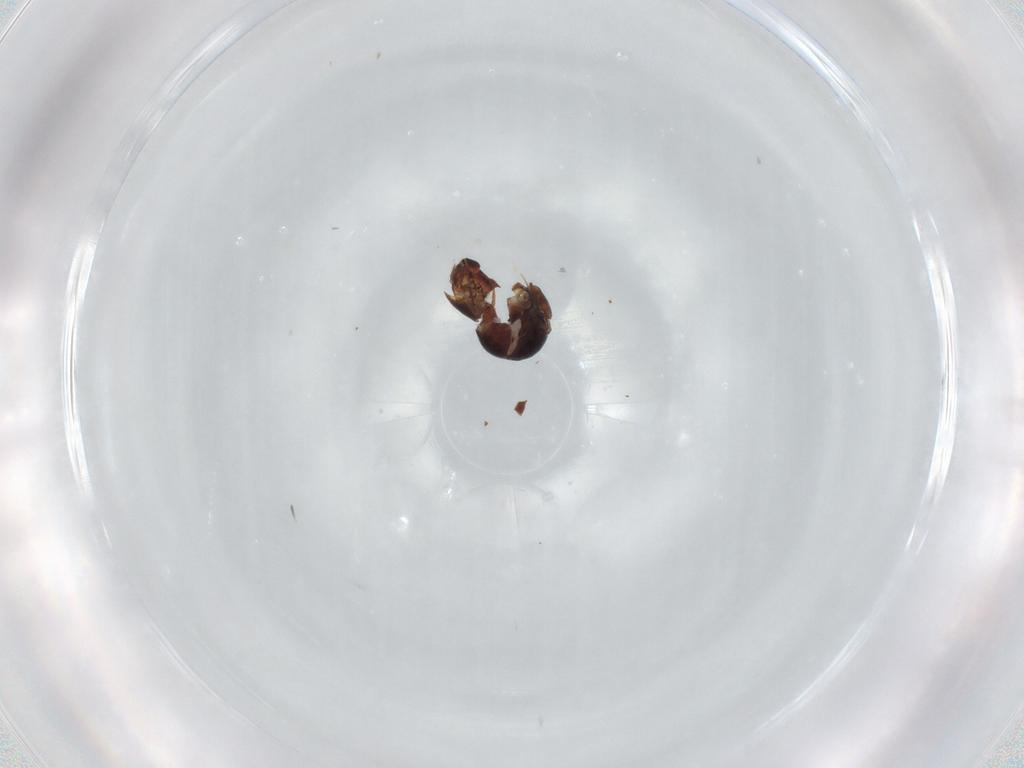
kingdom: Animalia
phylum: Arthropoda
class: Arachnida
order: Sarcoptiformes
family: Ceratozetidae
